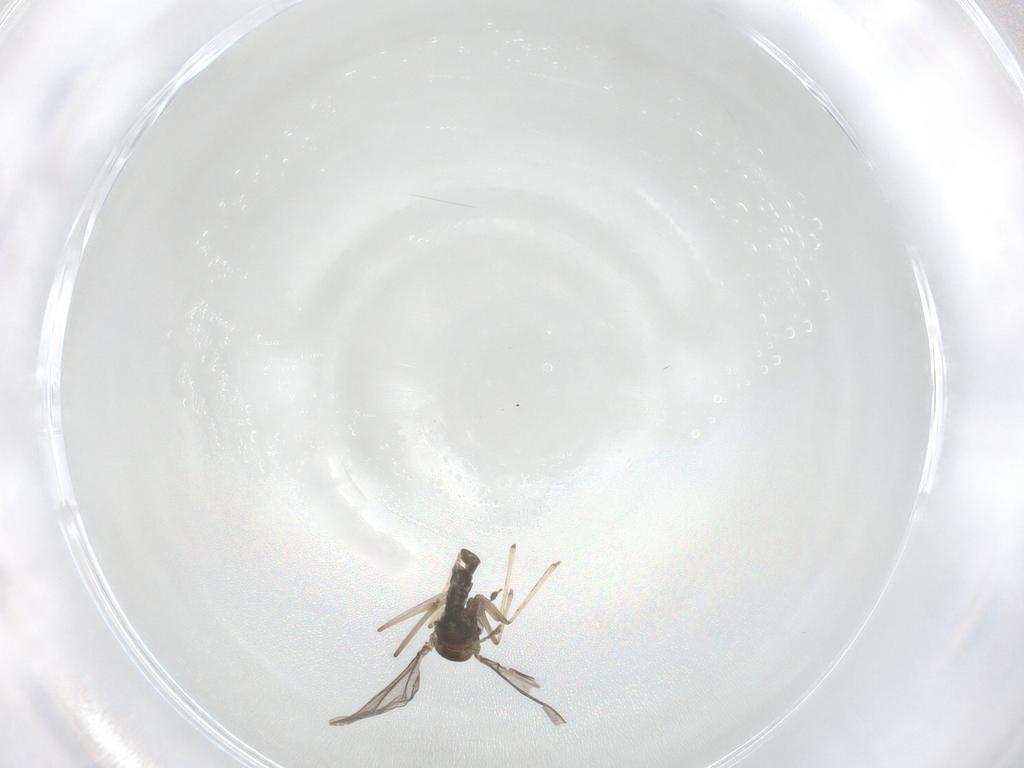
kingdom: Animalia
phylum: Arthropoda
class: Insecta
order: Diptera
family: Cecidomyiidae
